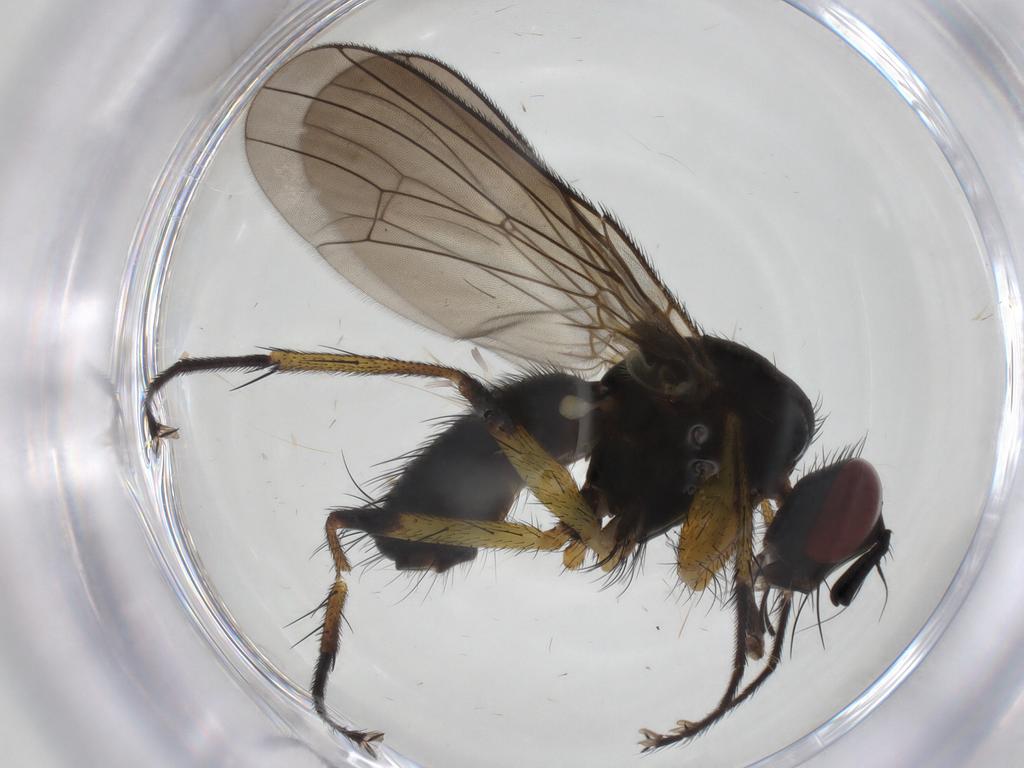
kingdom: Animalia
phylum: Arthropoda
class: Insecta
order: Diptera
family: Muscidae
